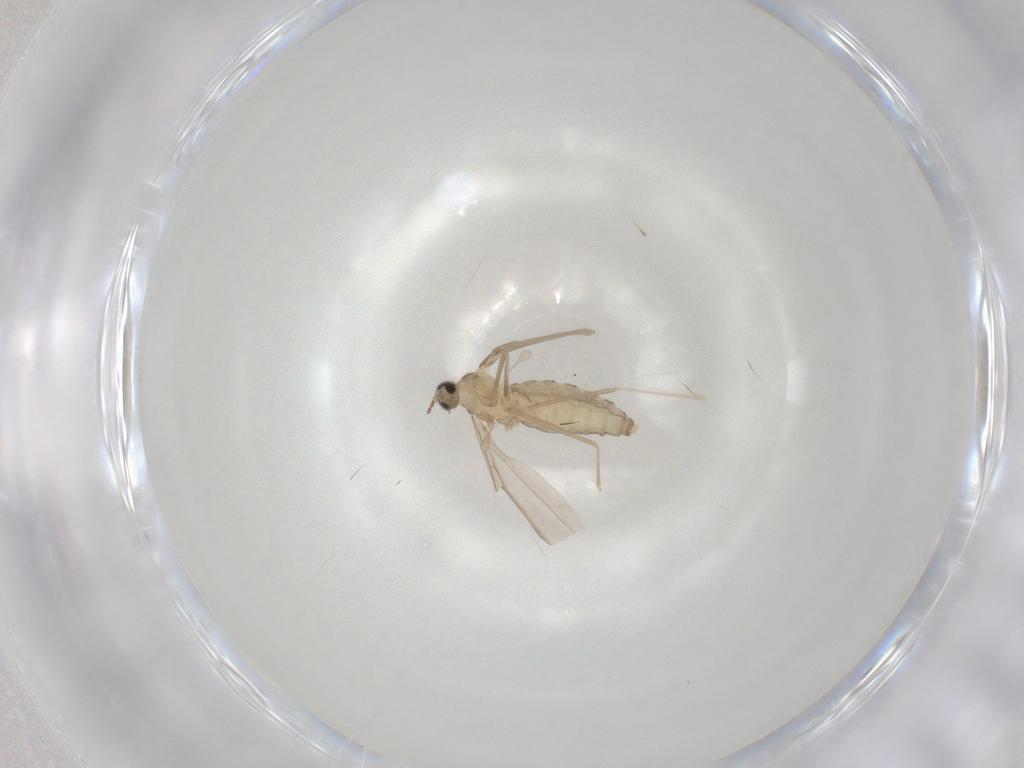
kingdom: Animalia
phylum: Arthropoda
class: Insecta
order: Diptera
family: Cecidomyiidae
